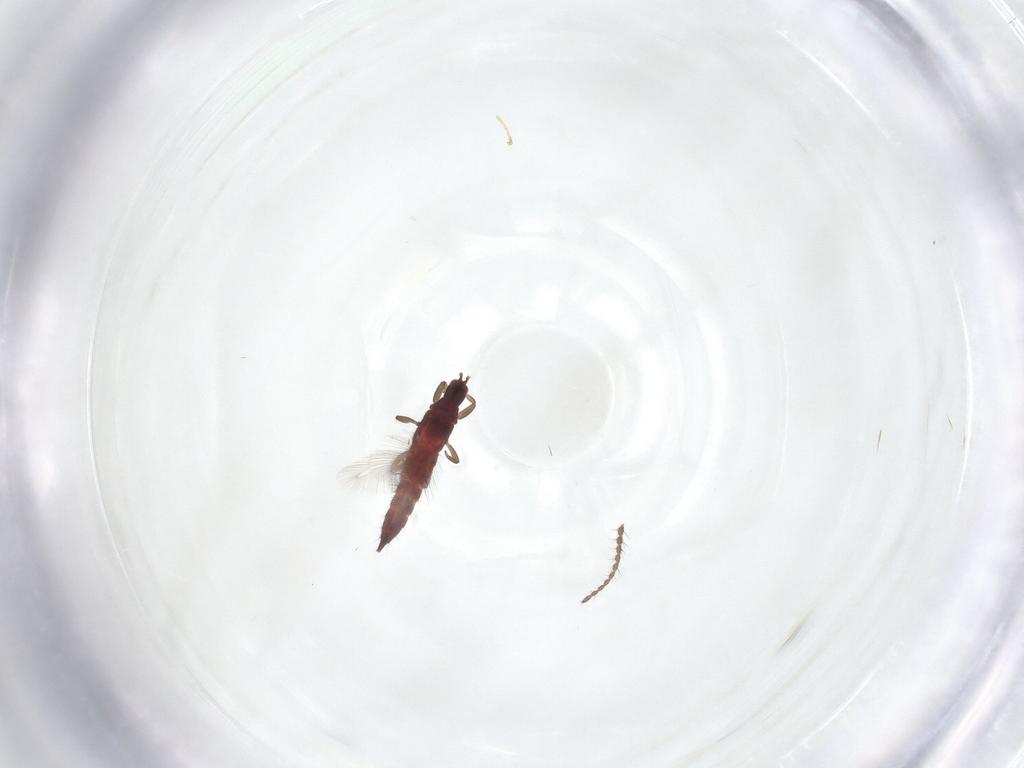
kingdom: Animalia
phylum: Arthropoda
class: Insecta
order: Thysanoptera
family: Phlaeothripidae
